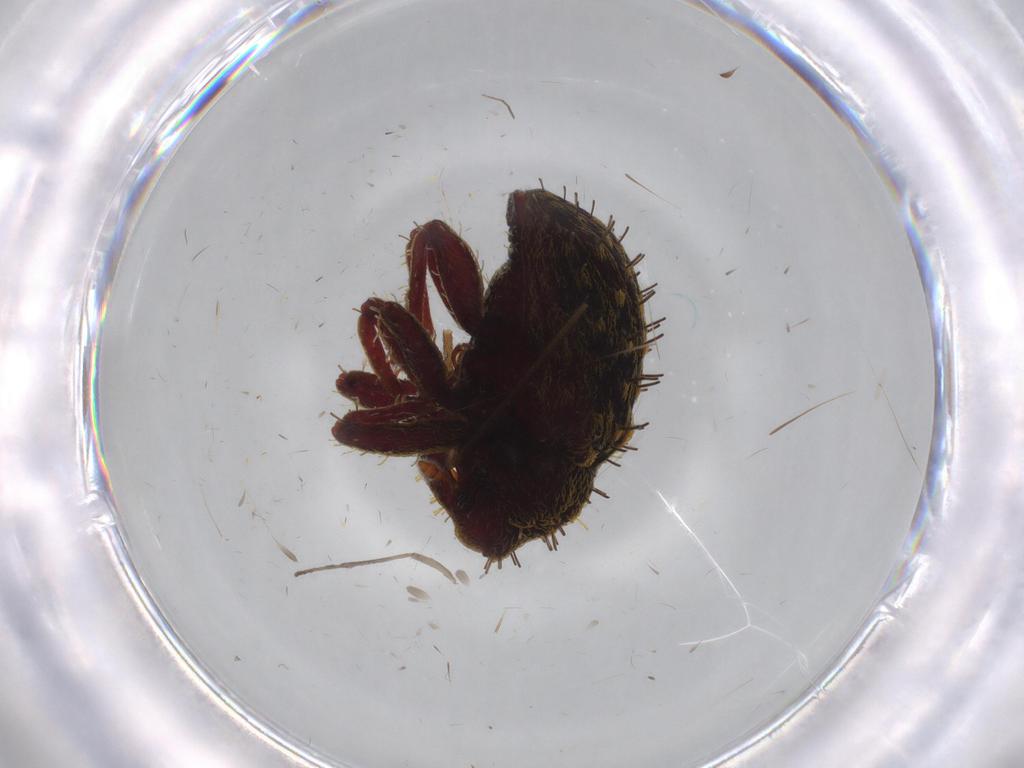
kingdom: Animalia
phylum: Arthropoda
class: Insecta
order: Coleoptera
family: Curculionidae
